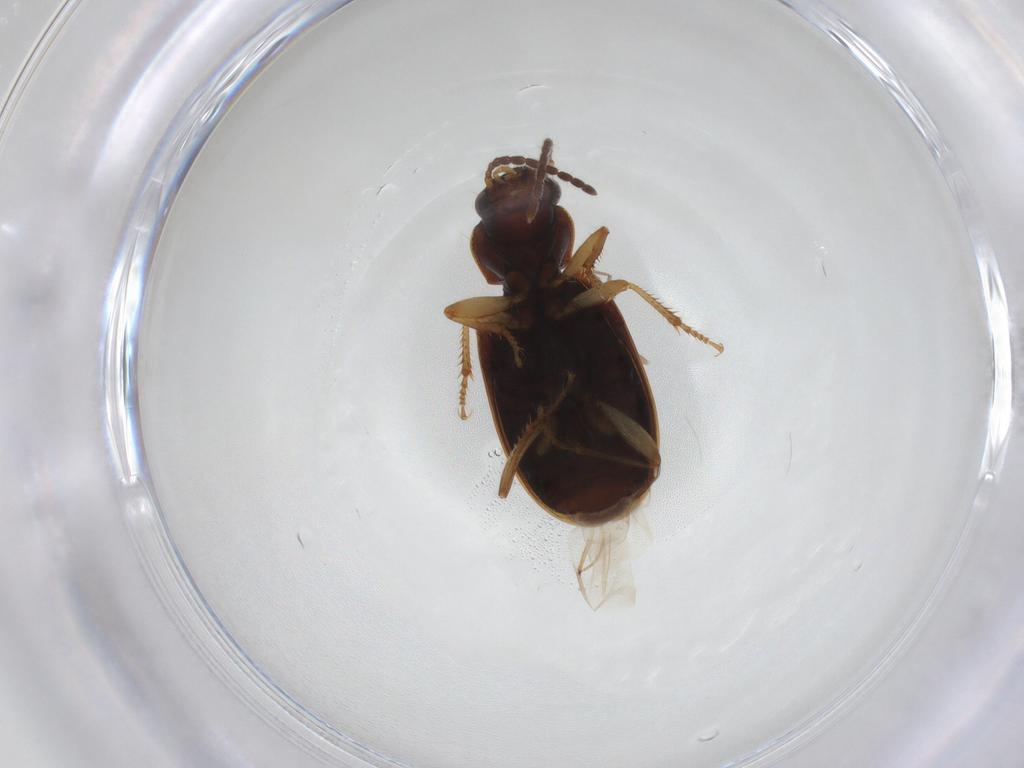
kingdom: Animalia
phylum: Arthropoda
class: Insecta
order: Coleoptera
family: Carabidae
